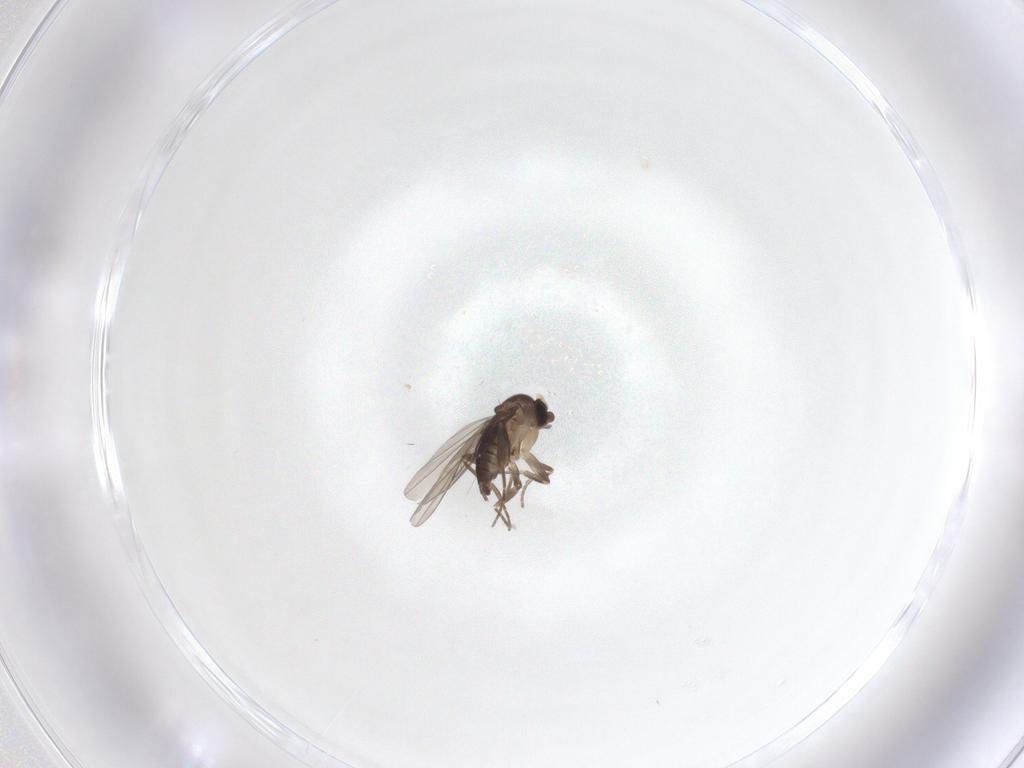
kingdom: Animalia
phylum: Arthropoda
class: Insecta
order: Diptera
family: Phoridae
